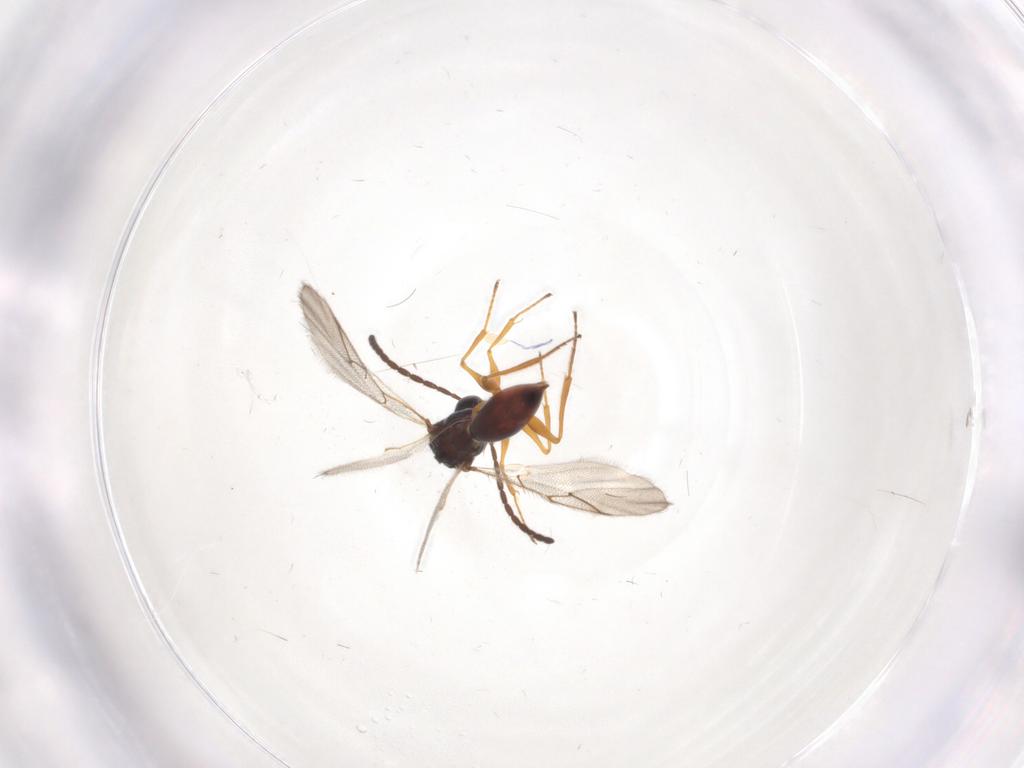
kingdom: Animalia
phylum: Arthropoda
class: Insecta
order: Hymenoptera
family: Figitidae
